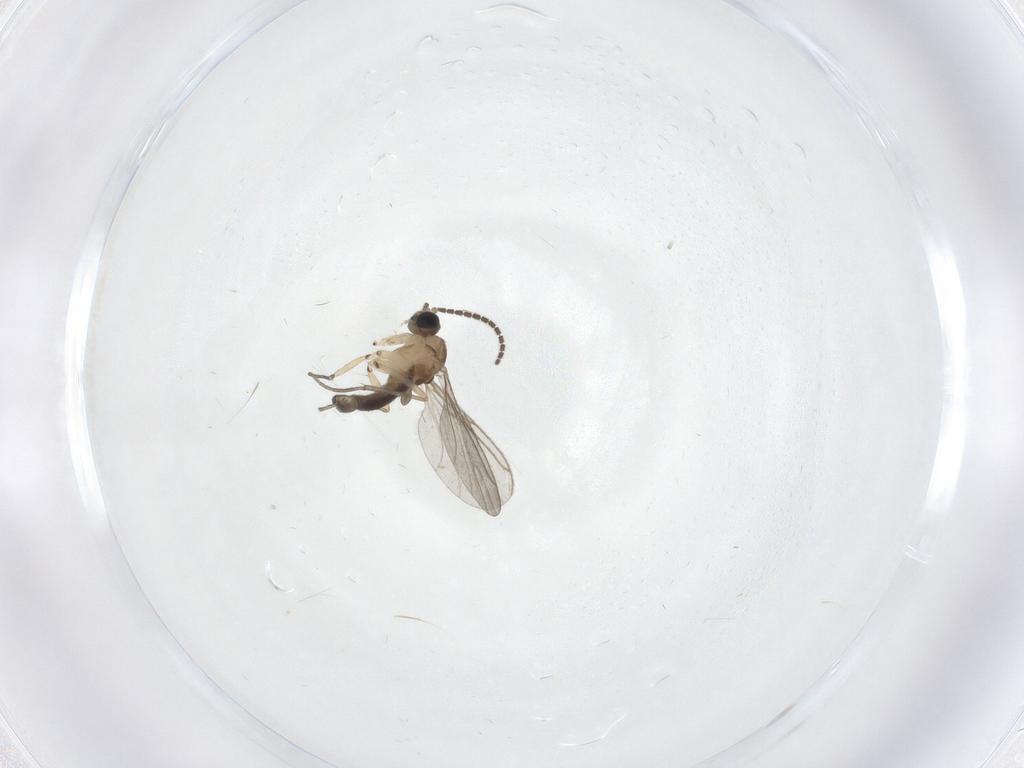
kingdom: Animalia
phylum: Arthropoda
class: Insecta
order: Diptera
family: Sciaridae
